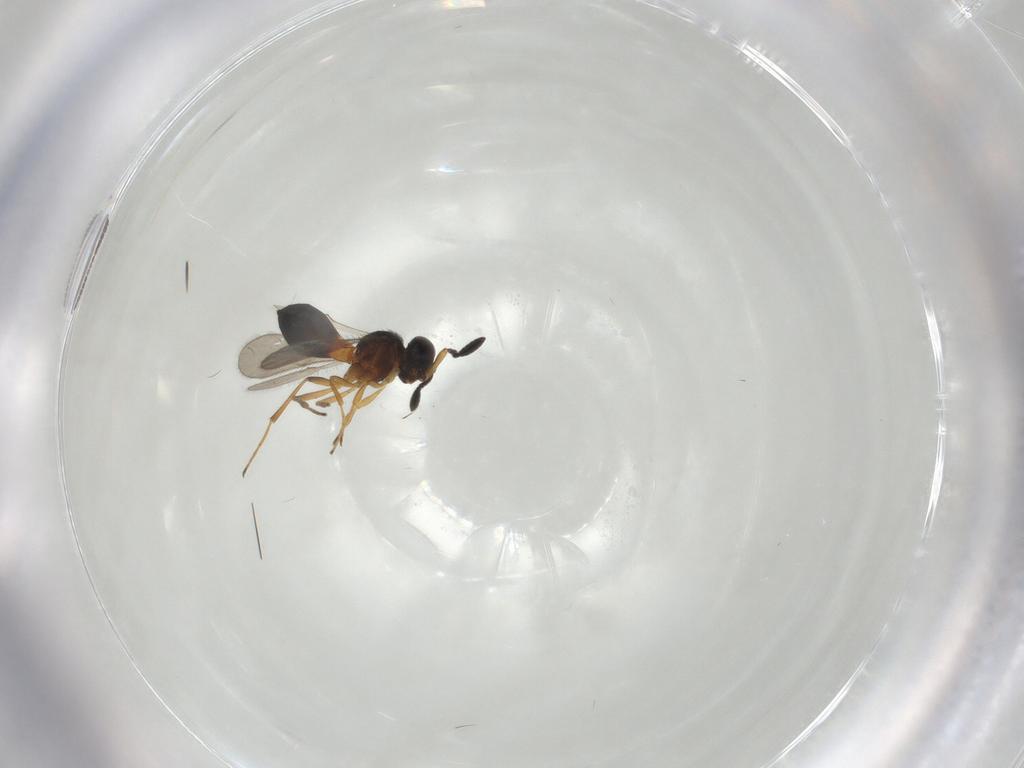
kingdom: Animalia
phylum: Arthropoda
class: Insecta
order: Hymenoptera
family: Scelionidae
